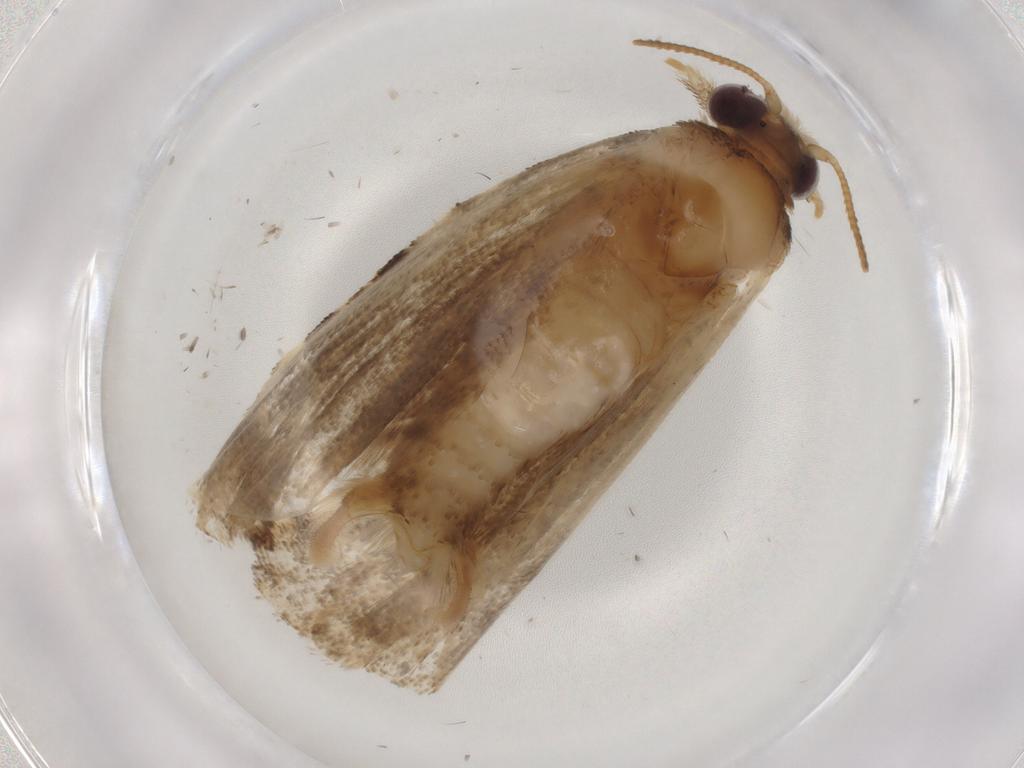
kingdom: Animalia
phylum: Arthropoda
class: Insecta
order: Lepidoptera
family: Tortricidae
